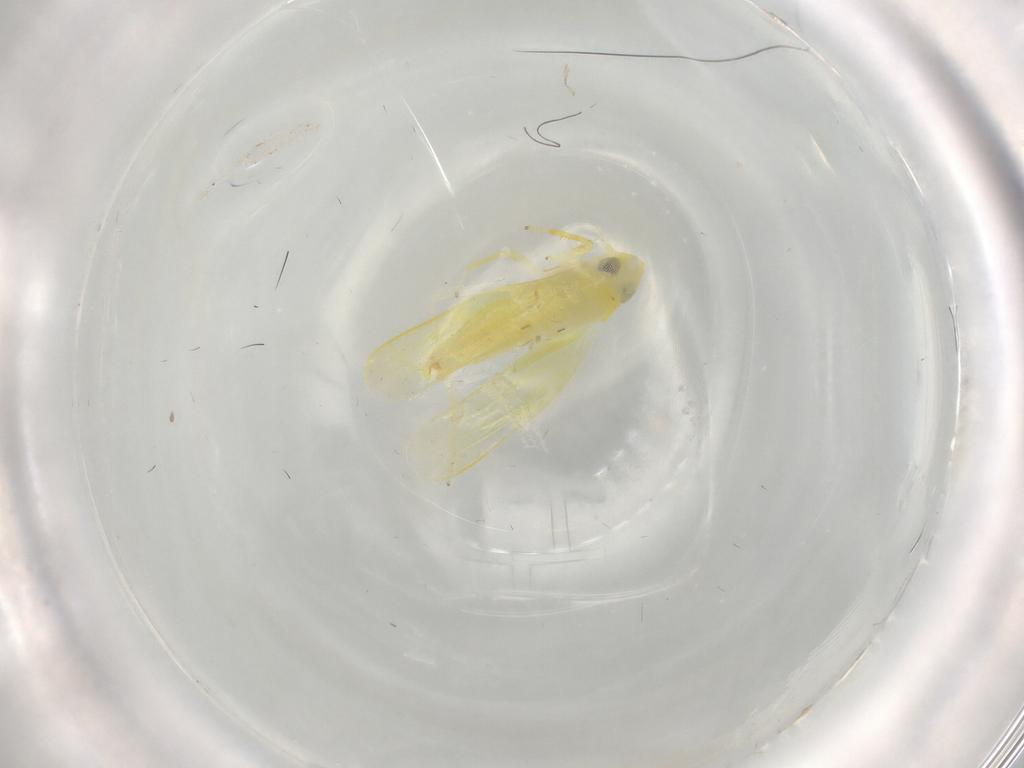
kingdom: Animalia
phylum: Arthropoda
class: Insecta
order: Hemiptera
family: Cicadellidae
